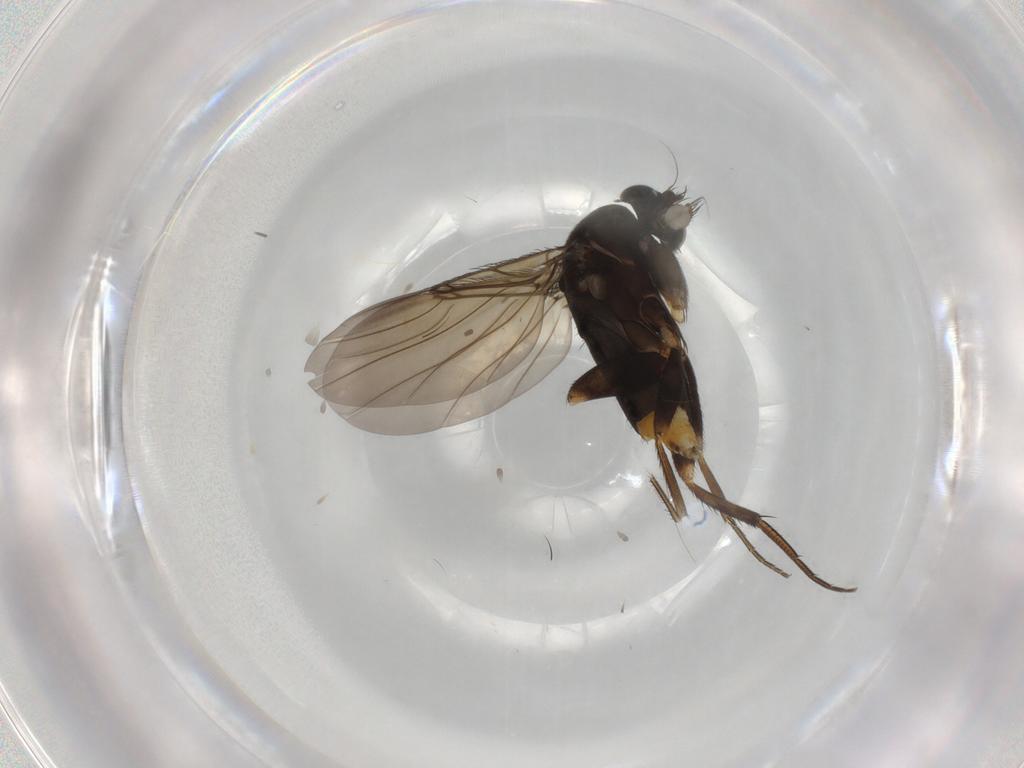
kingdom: Animalia
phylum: Arthropoda
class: Insecta
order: Diptera
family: Phoridae
